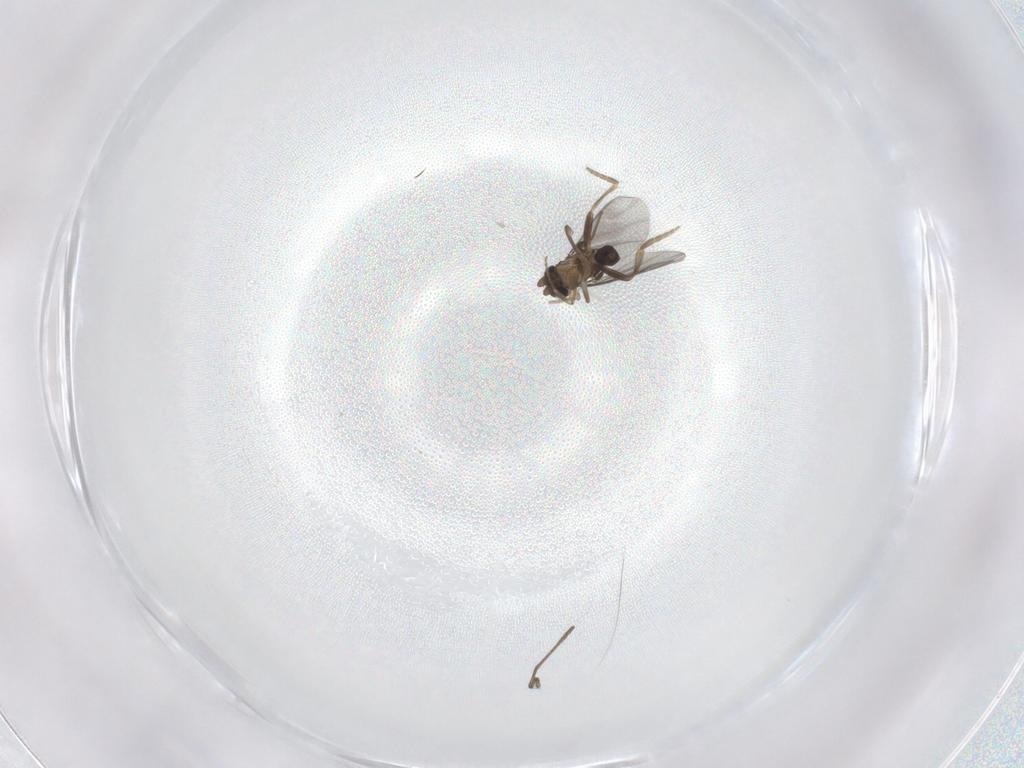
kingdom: Animalia
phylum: Arthropoda
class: Insecta
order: Diptera
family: Cecidomyiidae
